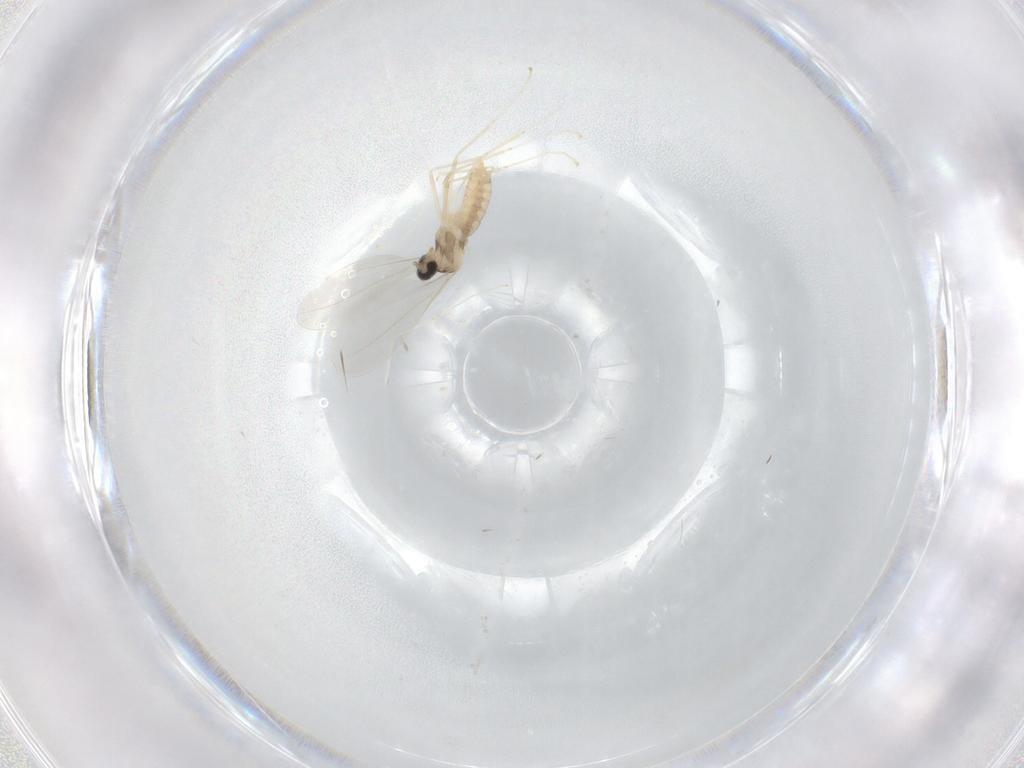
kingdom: Animalia
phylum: Arthropoda
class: Insecta
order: Diptera
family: Cecidomyiidae
